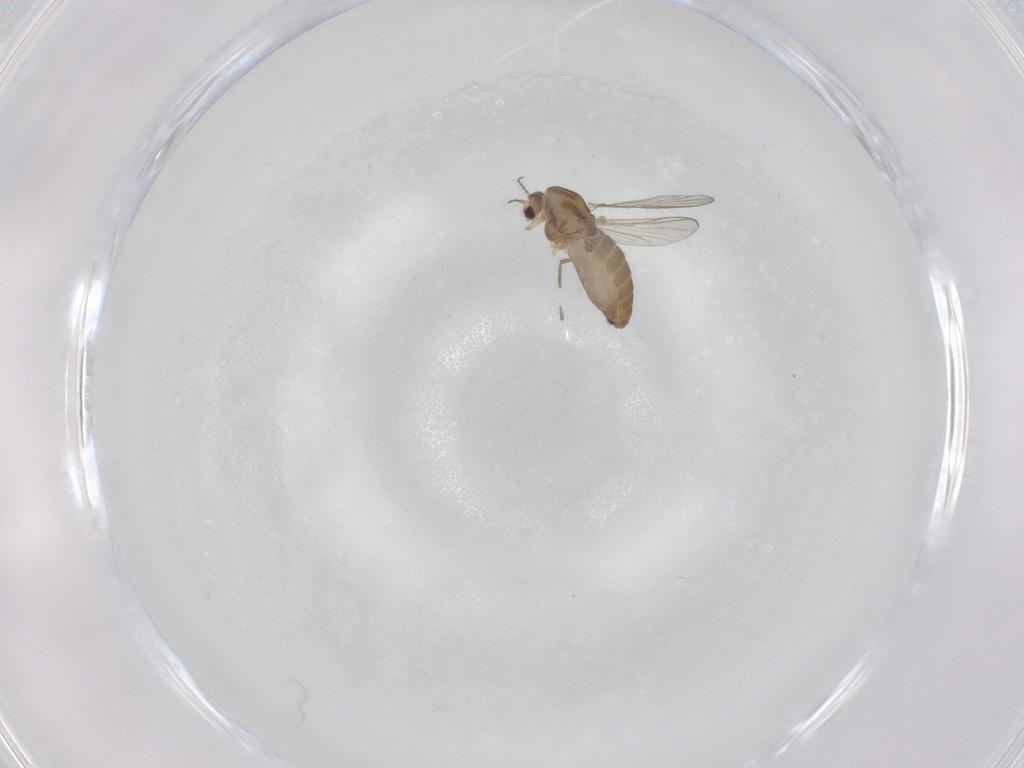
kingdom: Animalia
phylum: Arthropoda
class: Insecta
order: Diptera
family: Chironomidae
